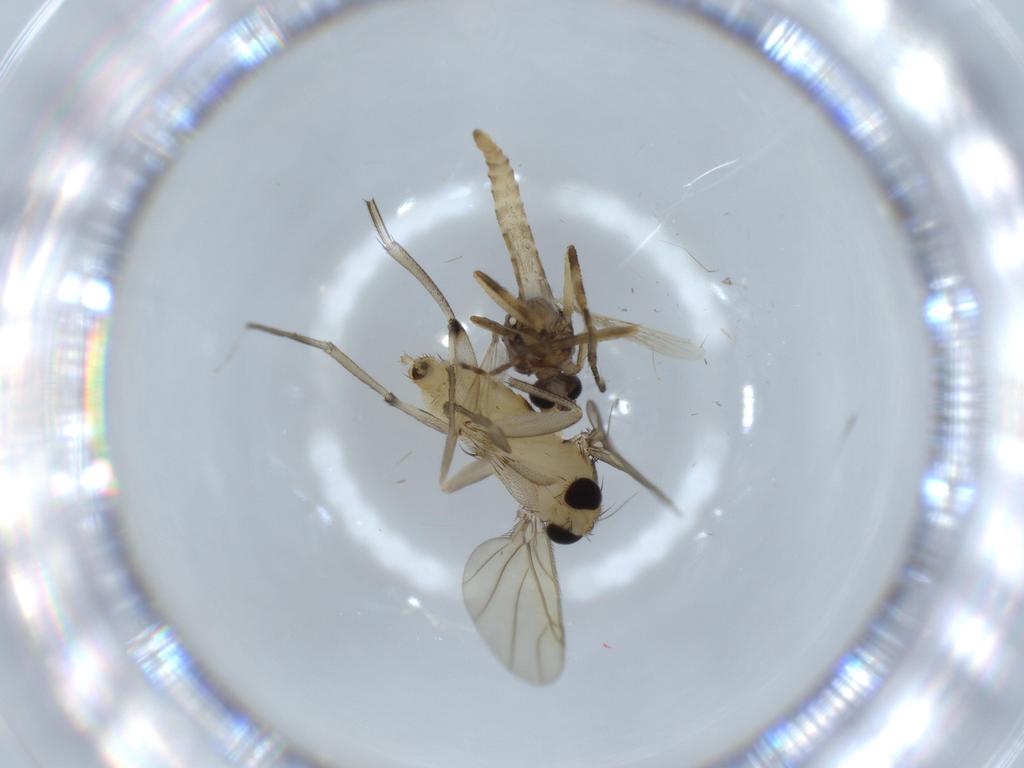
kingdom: Animalia
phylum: Arthropoda
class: Insecta
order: Diptera
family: Ceratopogonidae
